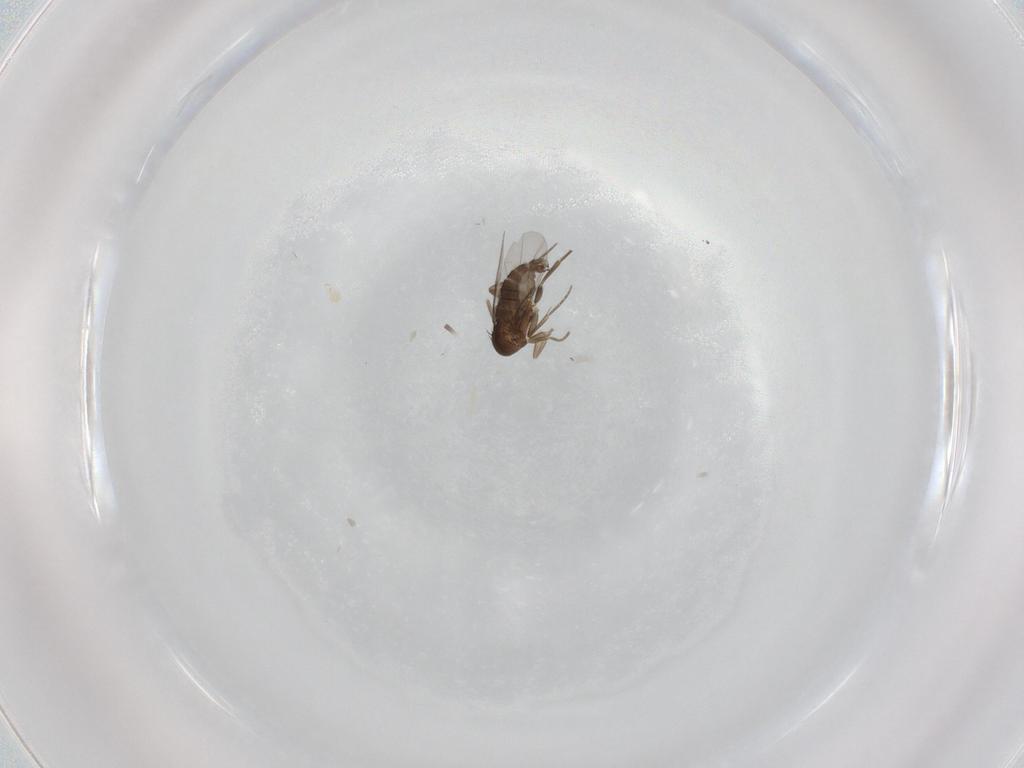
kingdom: Animalia
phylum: Arthropoda
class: Insecta
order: Diptera
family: Phoridae
